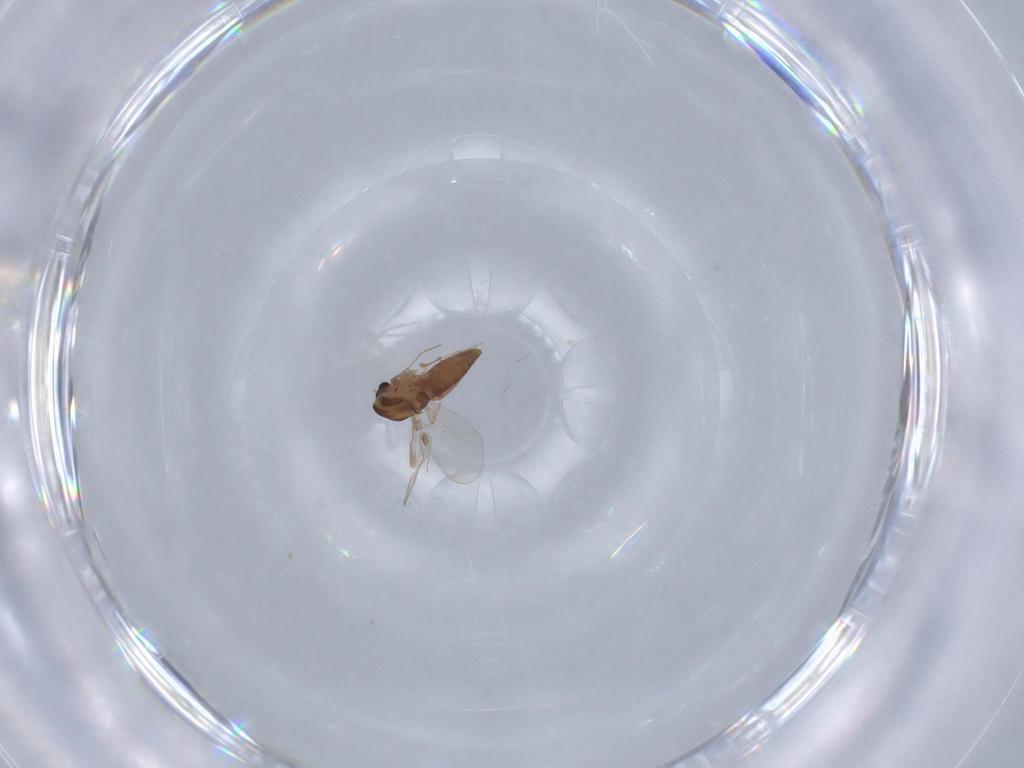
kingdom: Animalia
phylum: Arthropoda
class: Insecta
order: Diptera
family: Chironomidae
